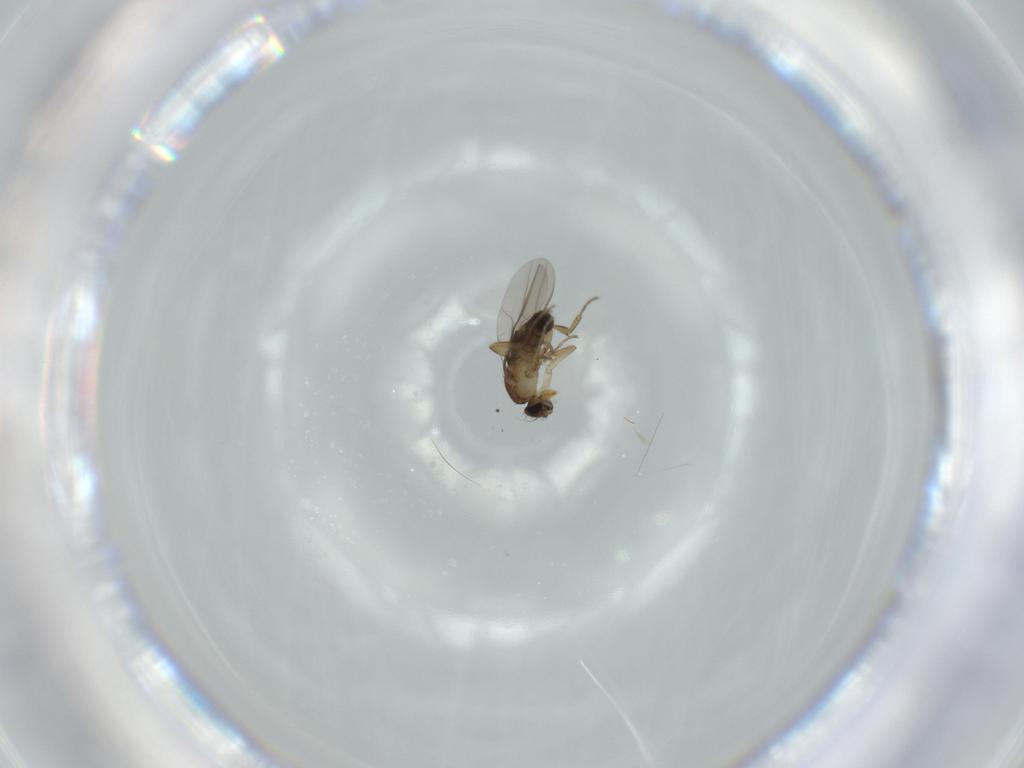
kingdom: Animalia
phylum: Arthropoda
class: Insecta
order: Diptera
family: Phoridae
